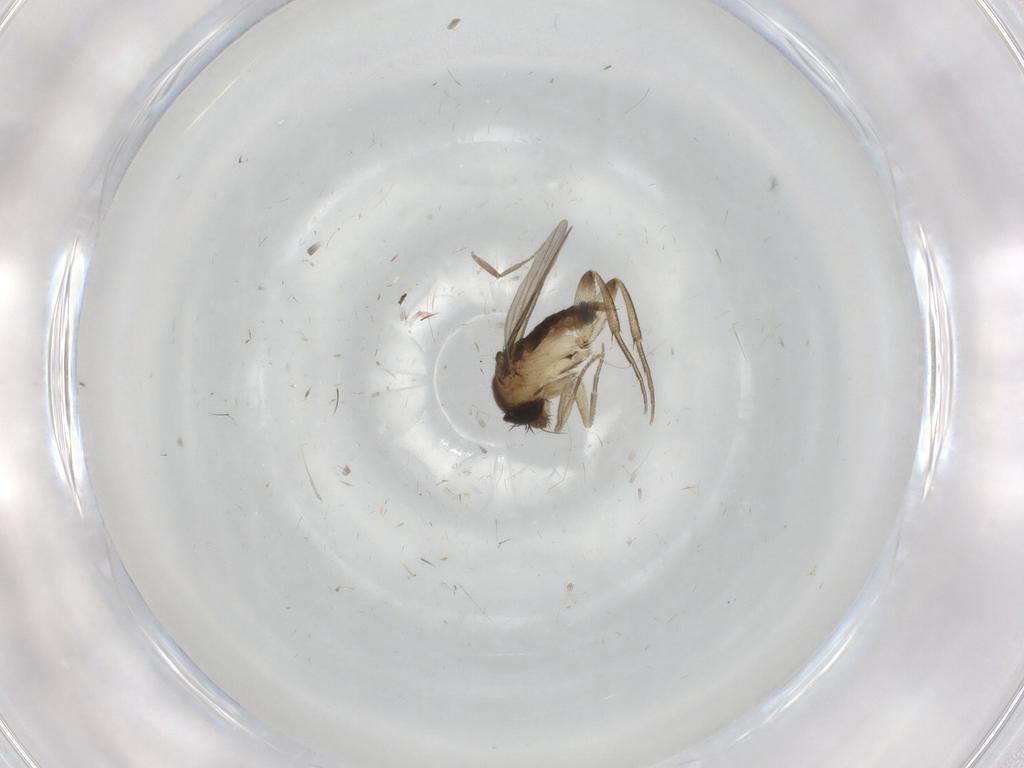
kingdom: Animalia
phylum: Arthropoda
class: Insecta
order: Diptera
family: Phoridae
